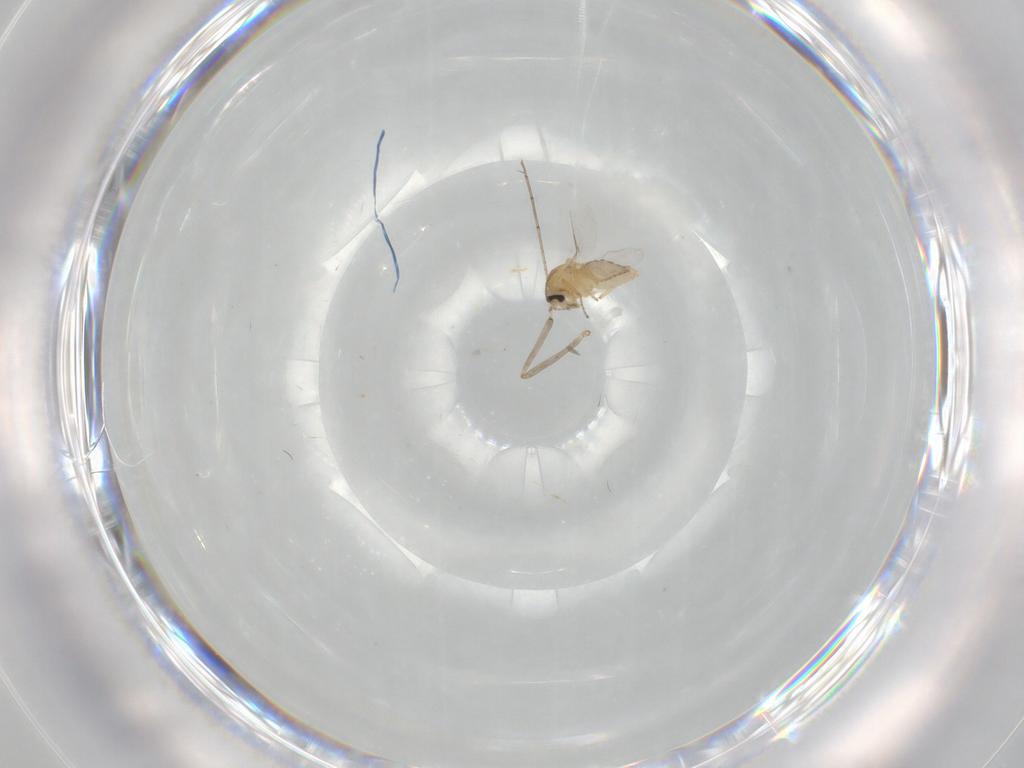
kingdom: Animalia
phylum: Arthropoda
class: Insecta
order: Diptera
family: Ceratopogonidae
